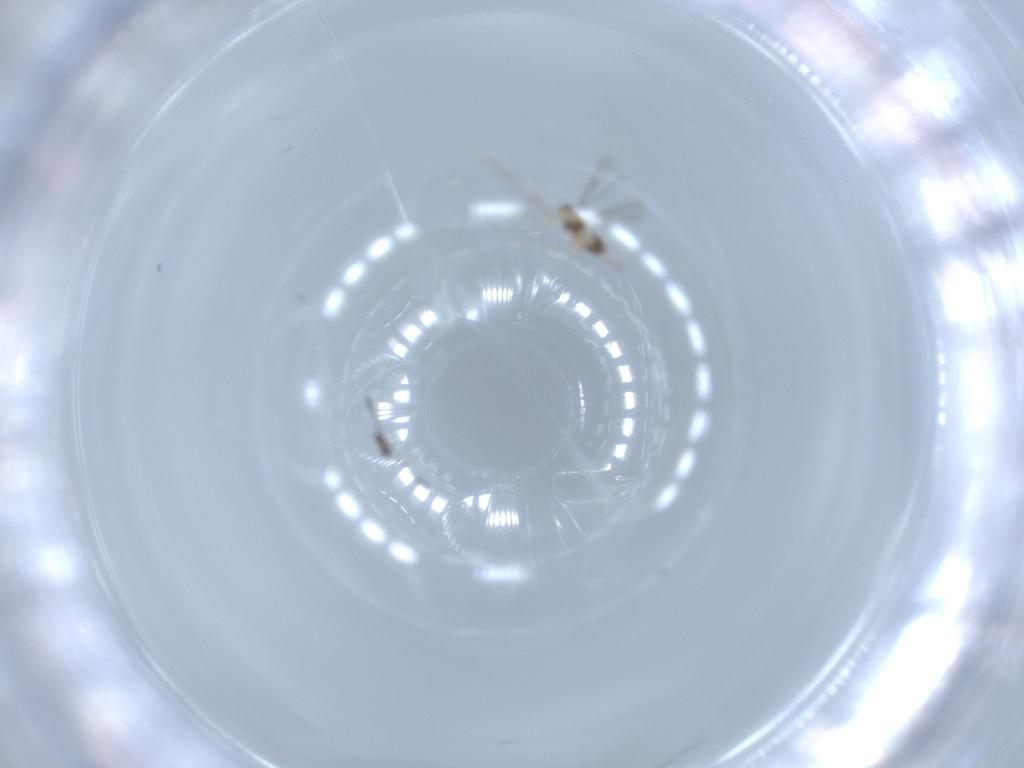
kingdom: Animalia
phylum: Arthropoda
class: Insecta
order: Hymenoptera
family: Mymaridae
